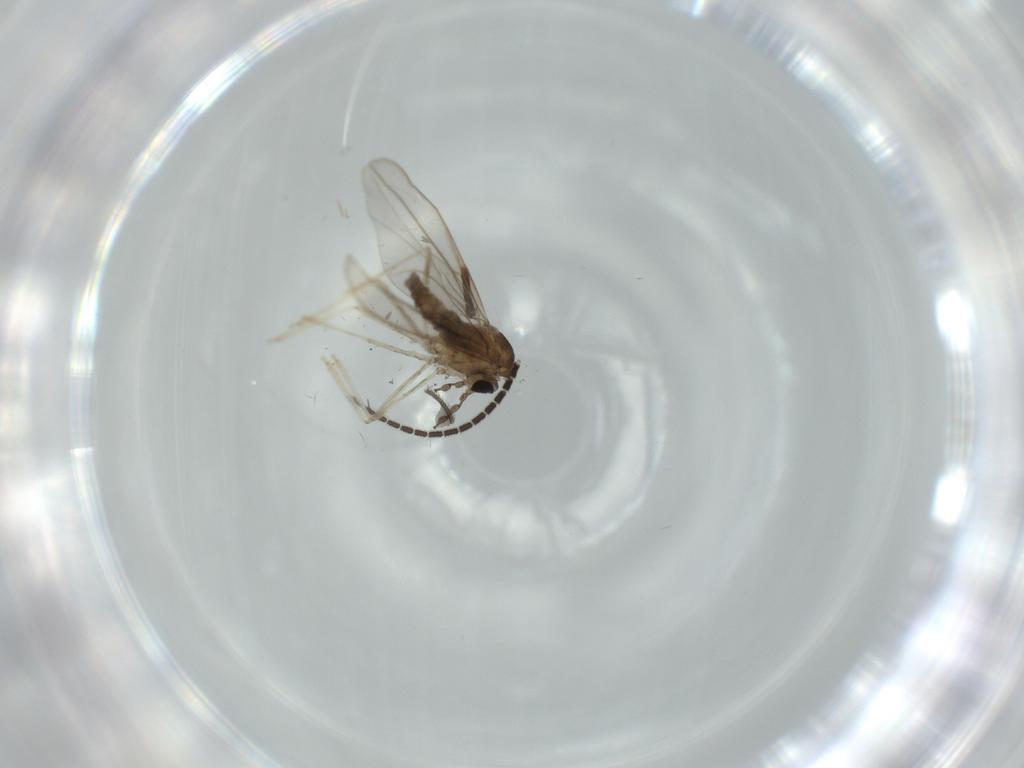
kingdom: Animalia
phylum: Arthropoda
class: Insecta
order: Diptera
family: Cecidomyiidae
